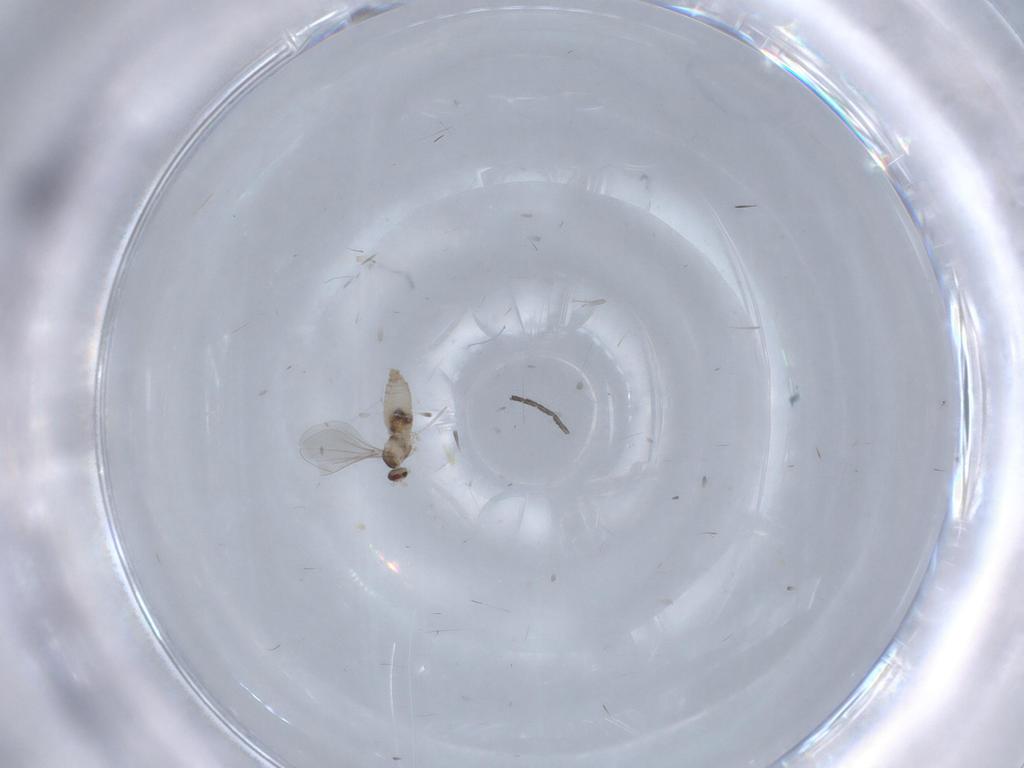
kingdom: Animalia
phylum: Arthropoda
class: Insecta
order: Diptera
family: Cecidomyiidae
